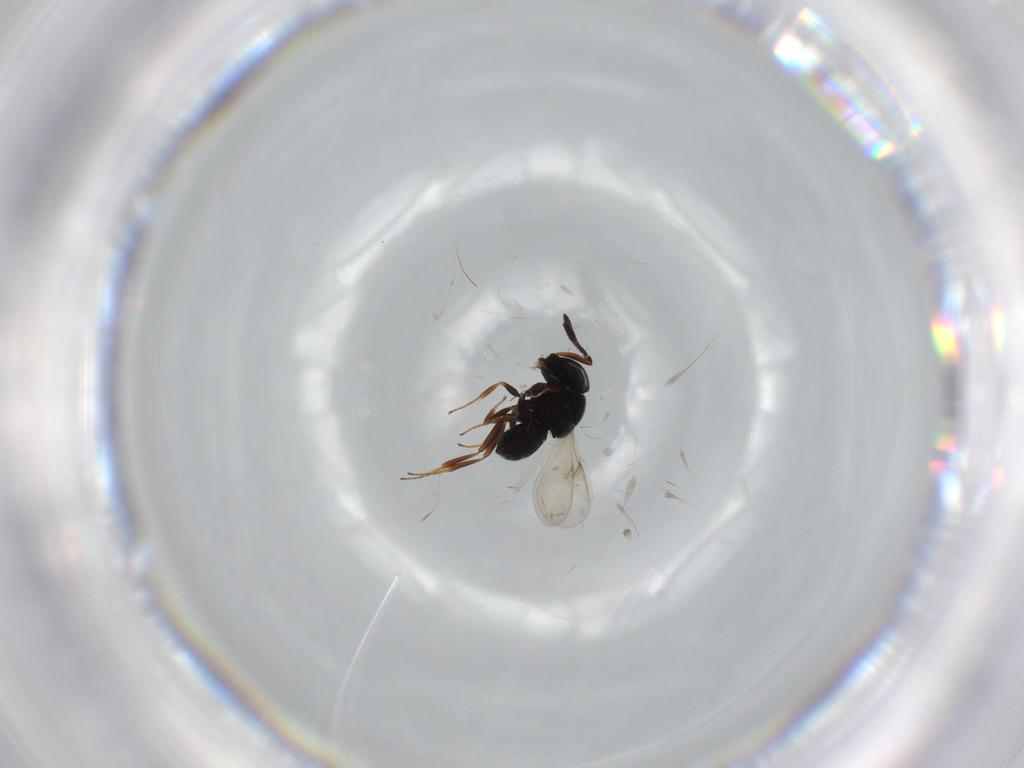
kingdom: Animalia
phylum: Arthropoda
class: Insecta
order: Hymenoptera
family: Scelionidae
